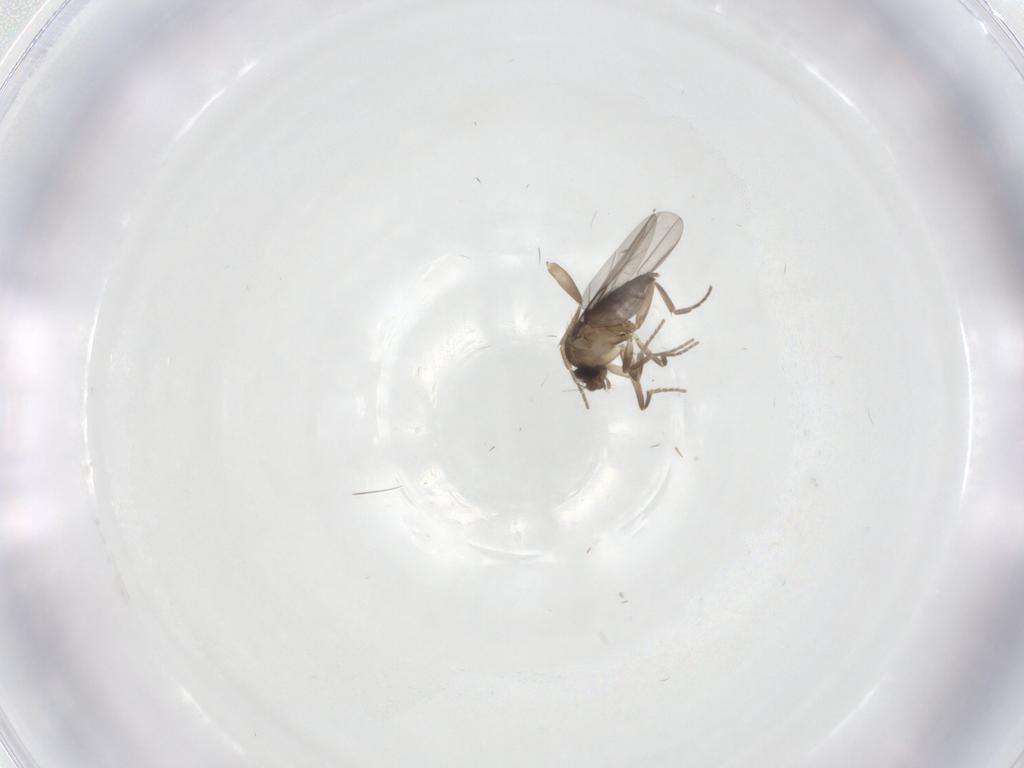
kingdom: Animalia
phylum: Arthropoda
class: Insecta
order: Diptera
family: Phoridae
